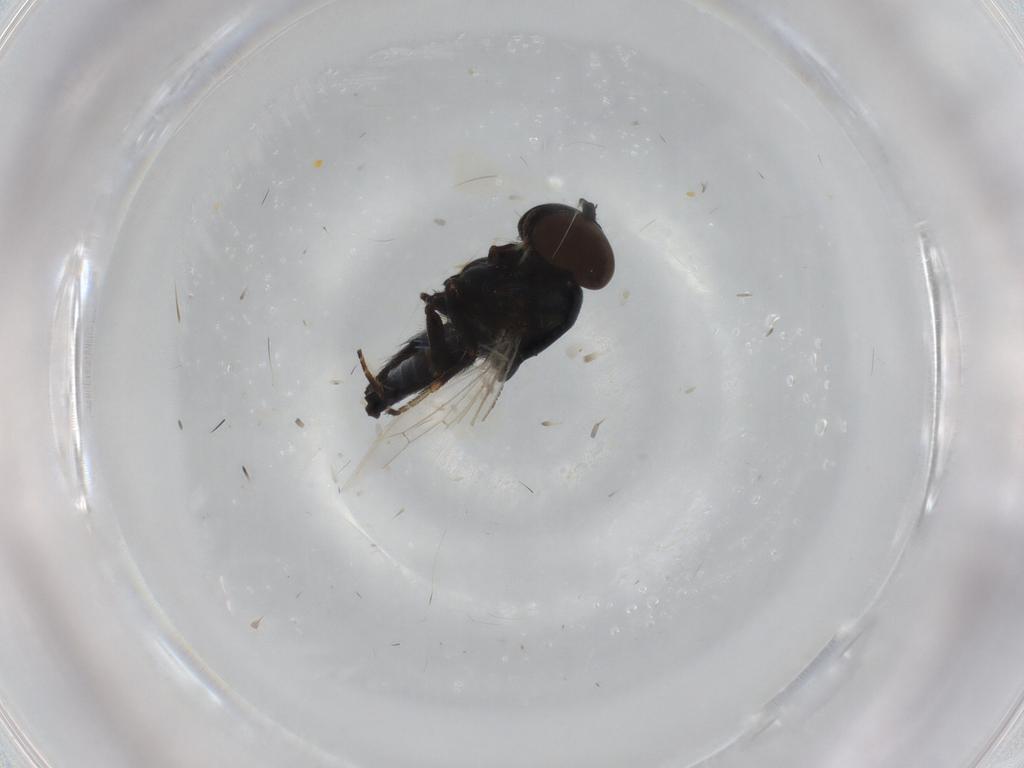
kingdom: Animalia
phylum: Arthropoda
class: Insecta
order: Diptera
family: Milichiidae
